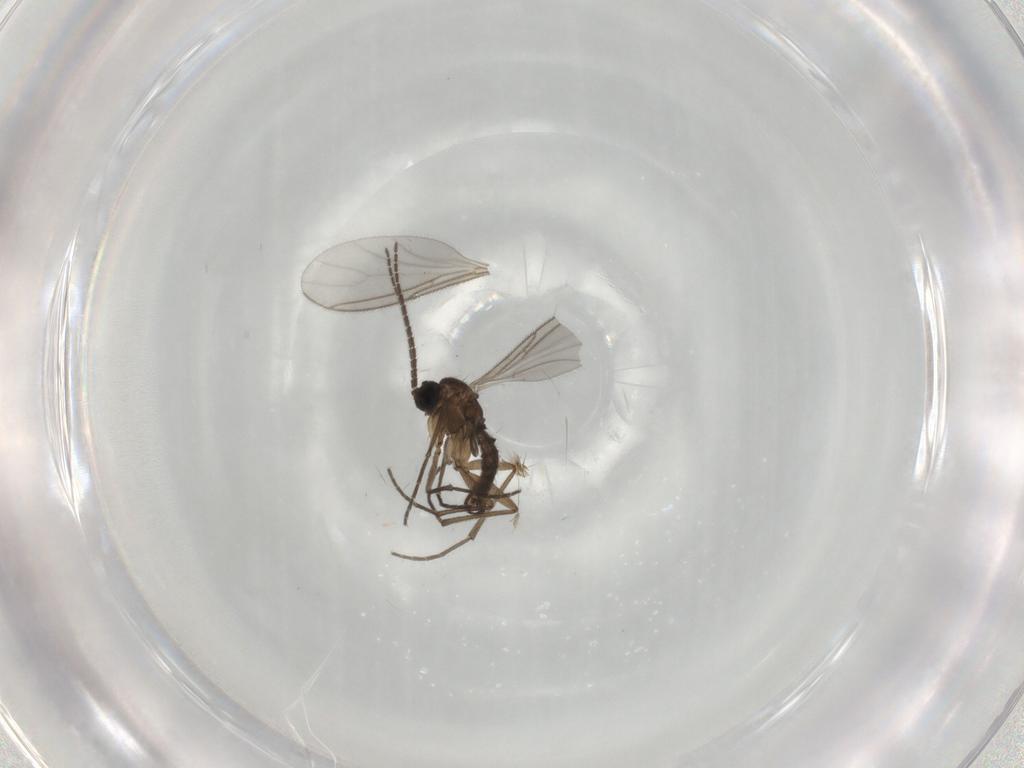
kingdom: Animalia
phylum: Arthropoda
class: Insecta
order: Diptera
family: Sciaridae
